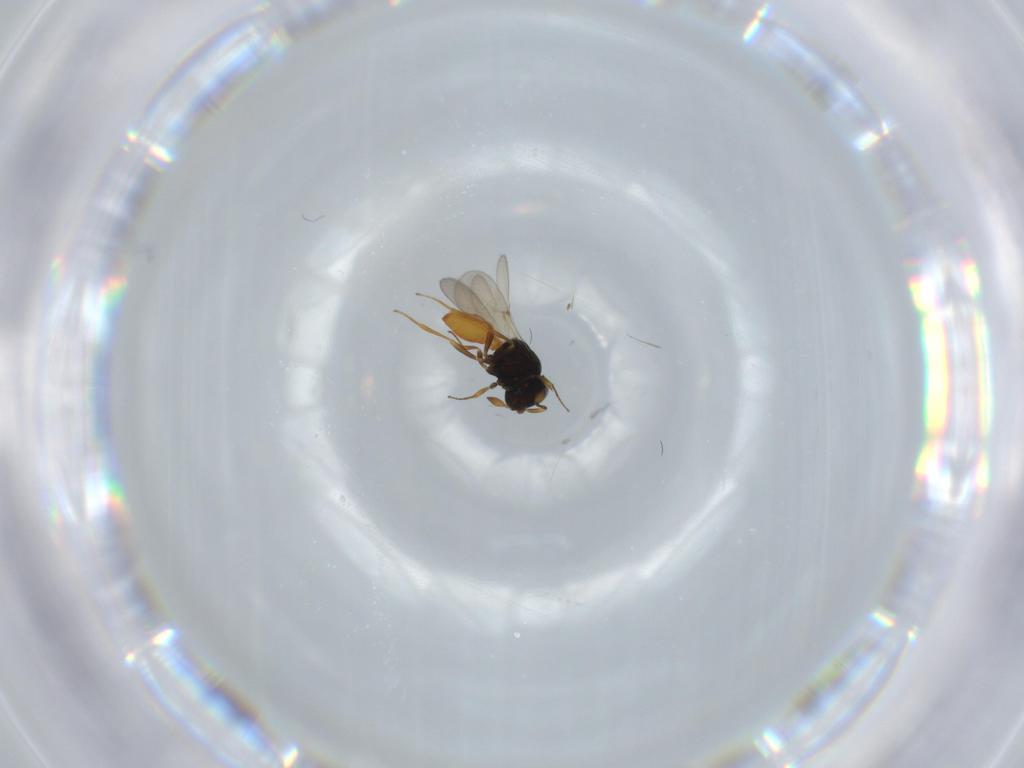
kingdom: Animalia
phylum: Arthropoda
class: Insecta
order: Hymenoptera
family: Scelionidae
